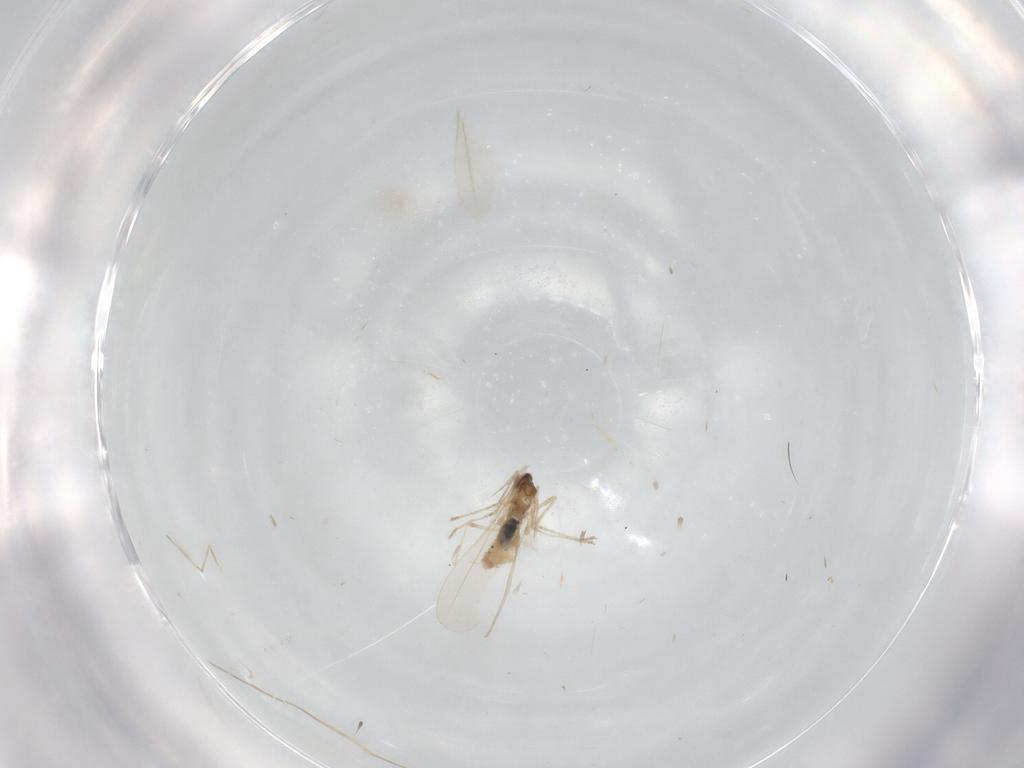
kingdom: Animalia
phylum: Arthropoda
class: Insecta
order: Diptera
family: Cecidomyiidae
